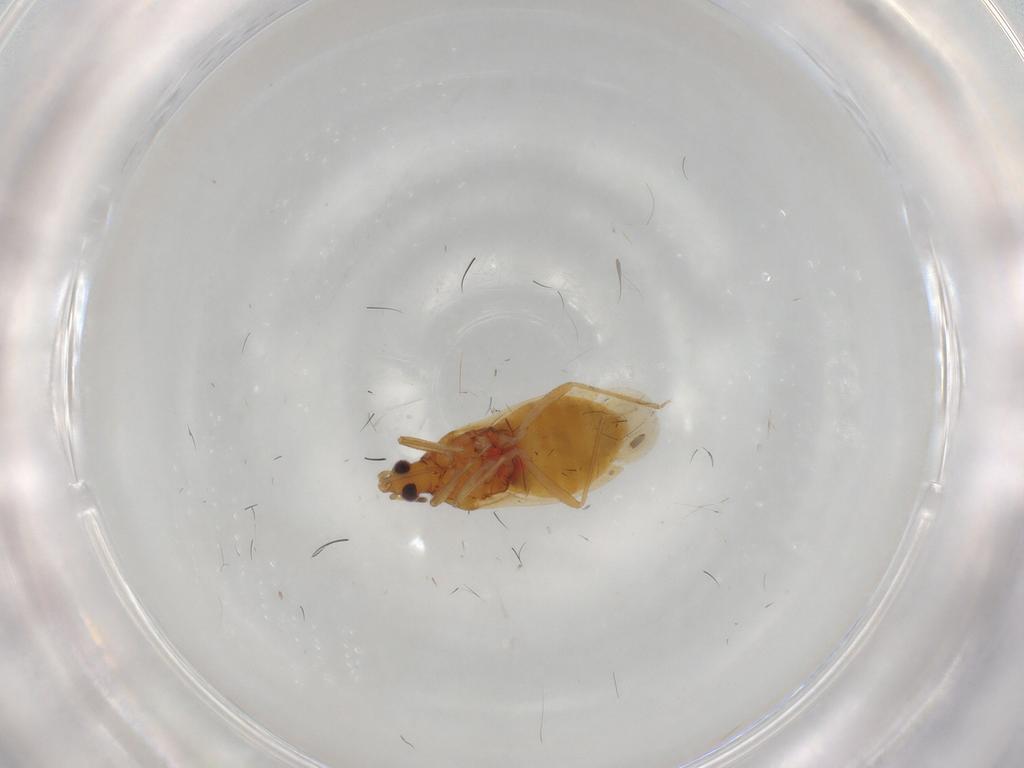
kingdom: Animalia
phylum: Arthropoda
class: Insecta
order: Hemiptera
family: Anthocoridae
